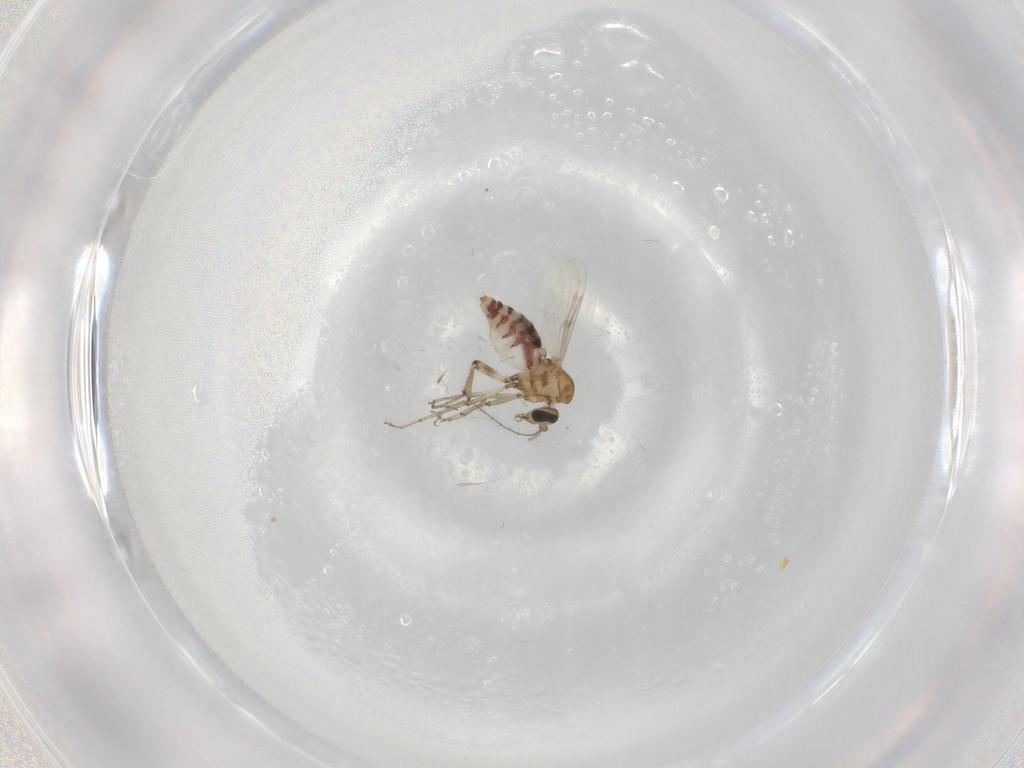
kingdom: Animalia
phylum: Arthropoda
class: Insecta
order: Diptera
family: Ceratopogonidae
